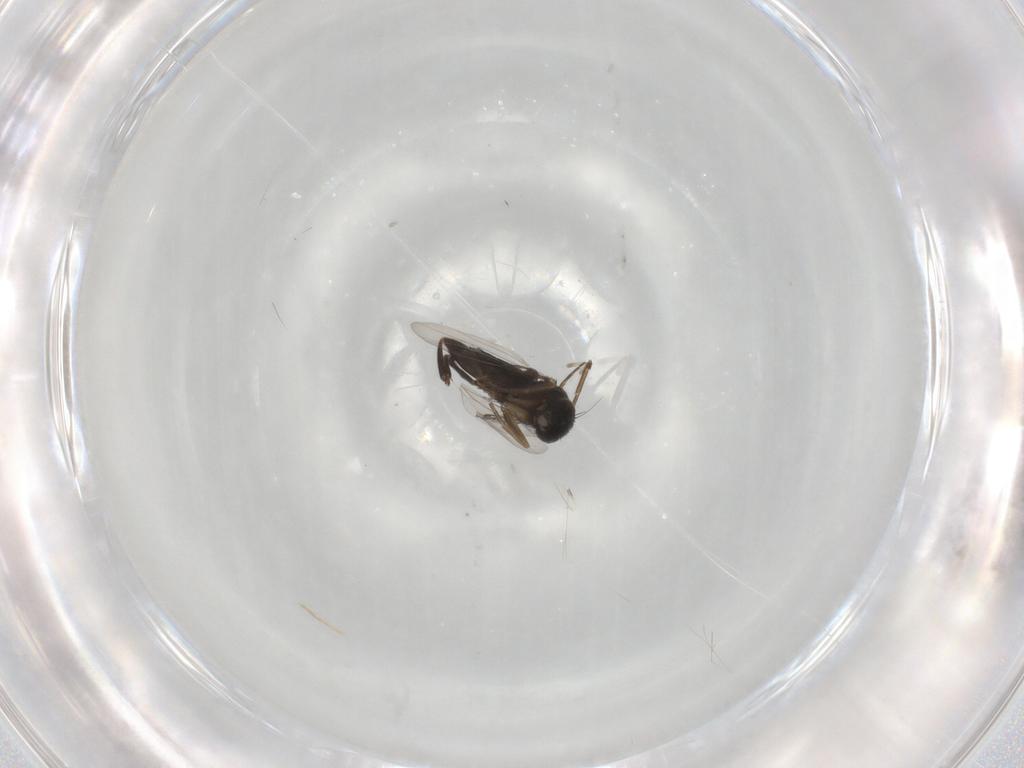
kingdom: Animalia
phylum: Arthropoda
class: Insecta
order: Diptera
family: Phoridae
